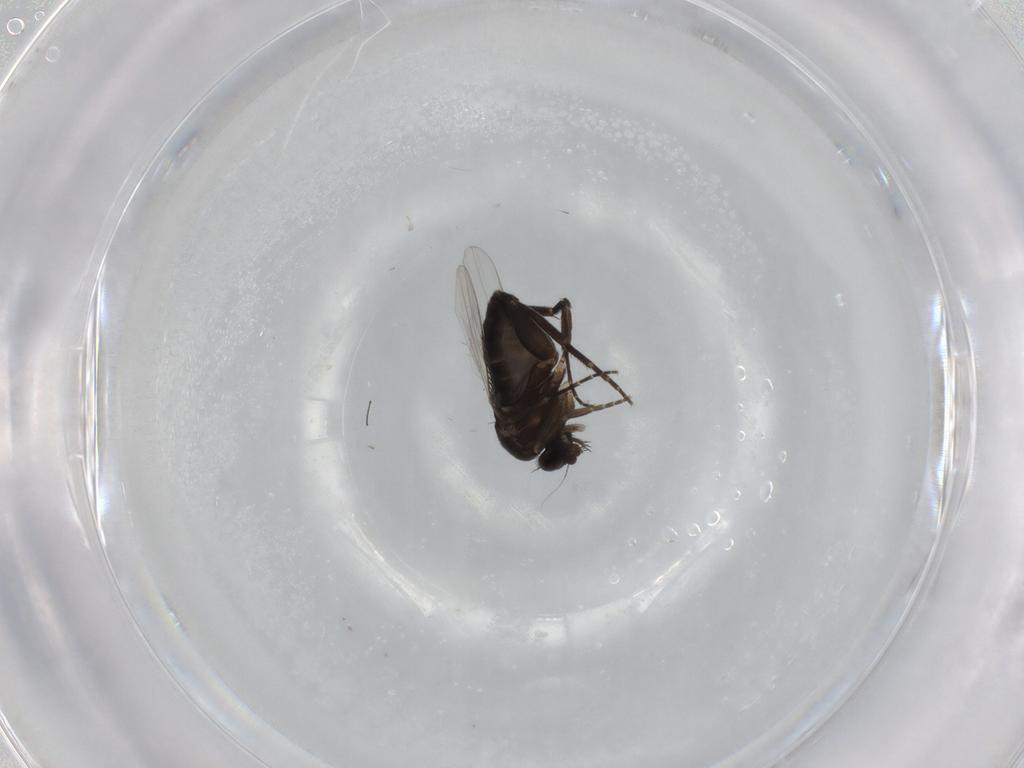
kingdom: Animalia
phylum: Arthropoda
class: Insecta
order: Diptera
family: Phoridae
